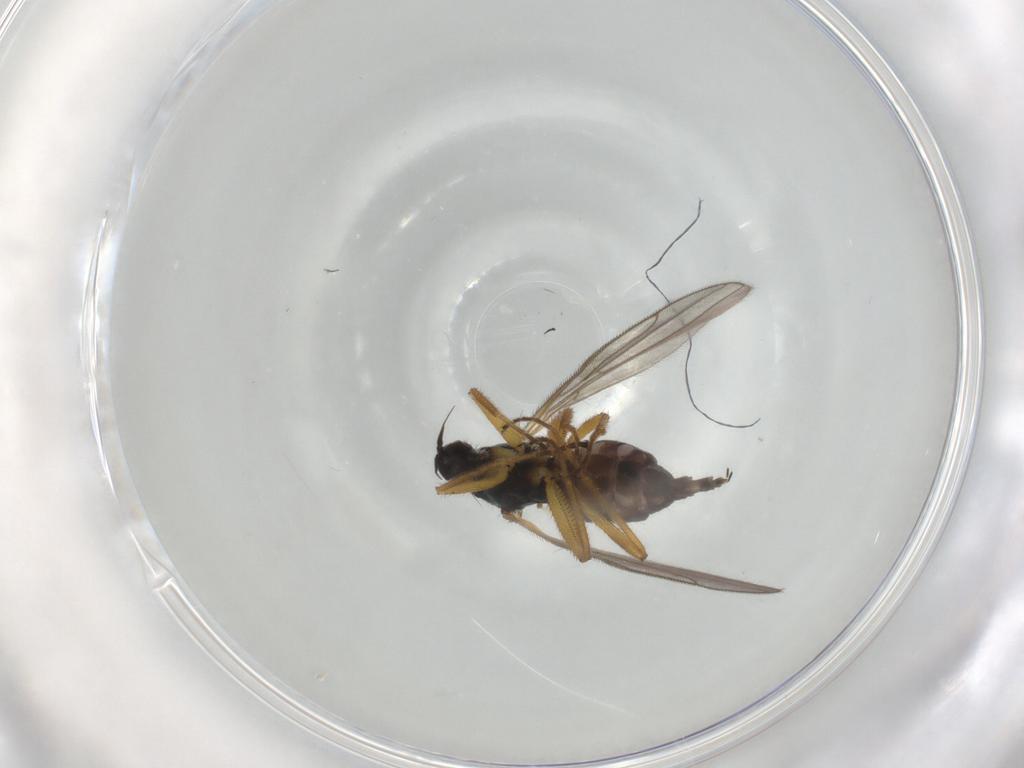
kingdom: Animalia
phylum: Arthropoda
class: Insecta
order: Diptera
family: Hybotidae
